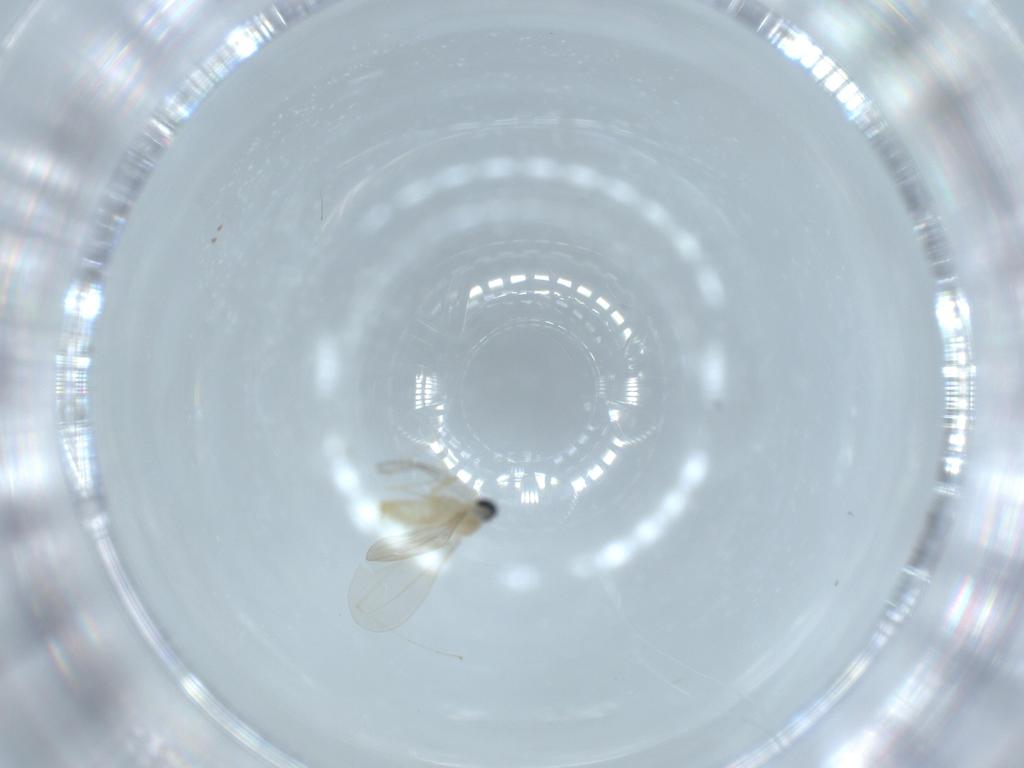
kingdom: Animalia
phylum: Arthropoda
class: Insecta
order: Diptera
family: Cecidomyiidae
